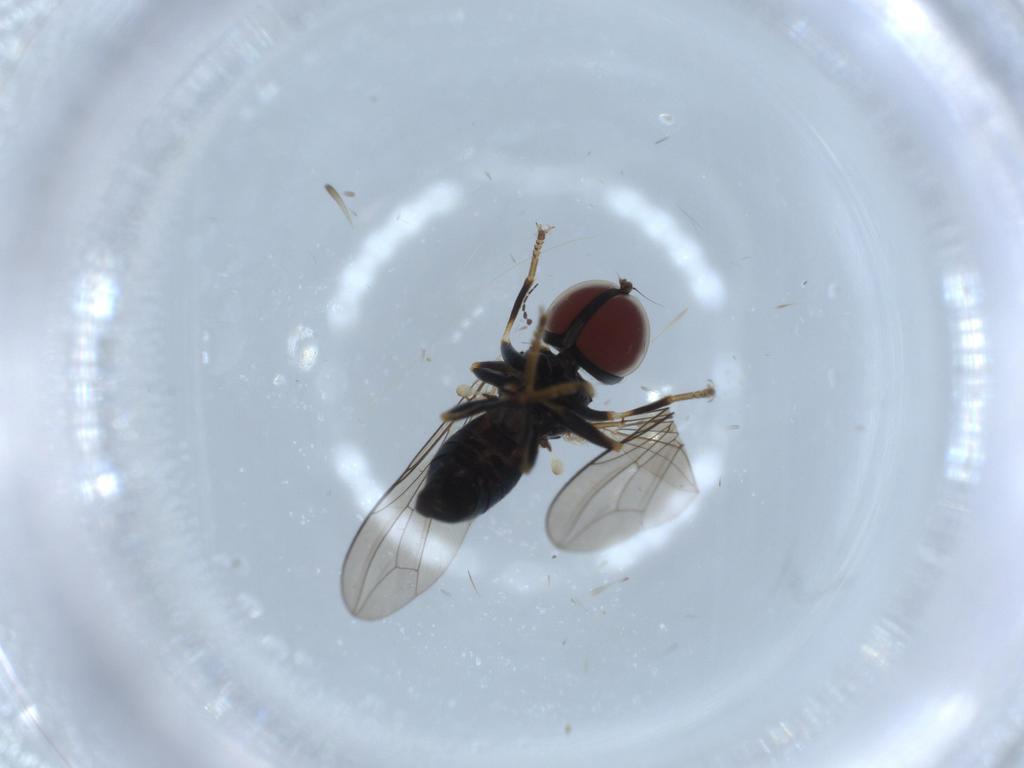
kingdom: Animalia
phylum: Arthropoda
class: Insecta
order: Diptera
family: Pipunculidae
